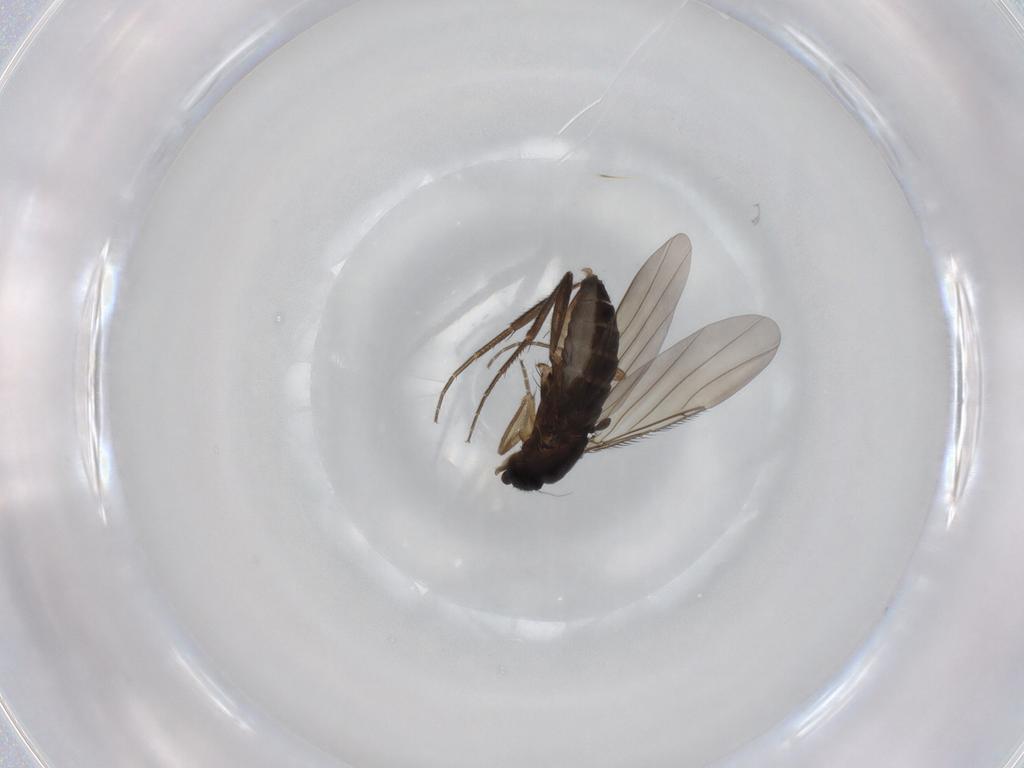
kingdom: Animalia
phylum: Arthropoda
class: Insecta
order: Diptera
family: Phoridae
